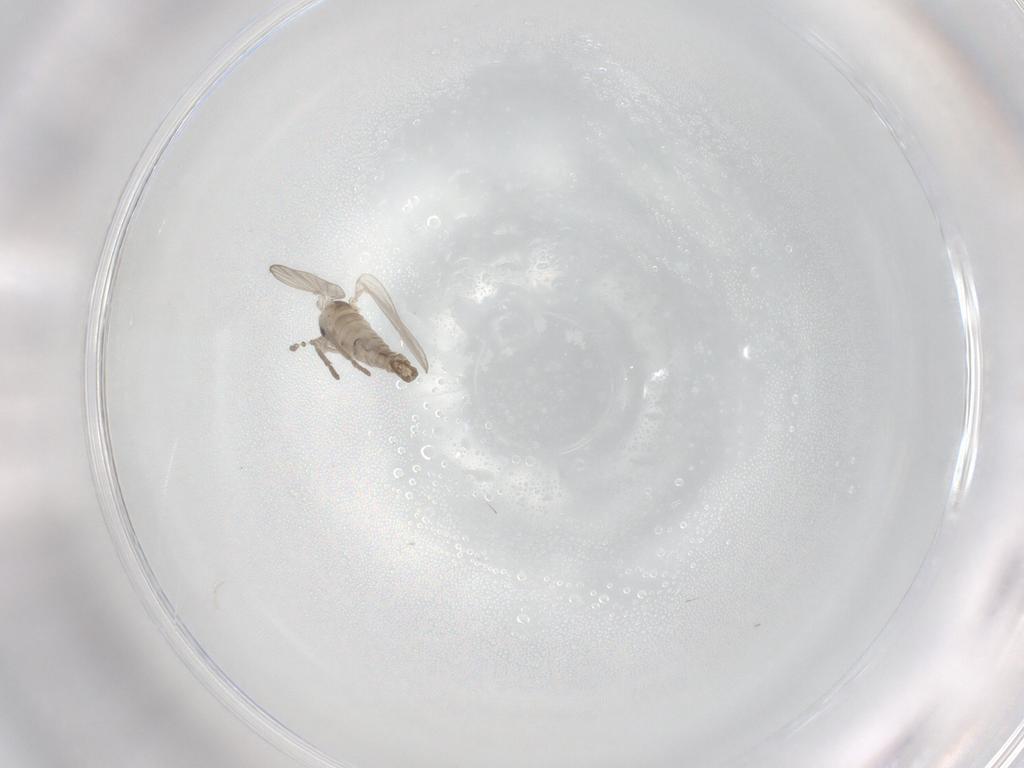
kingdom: Animalia
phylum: Arthropoda
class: Insecta
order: Diptera
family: Psychodidae
